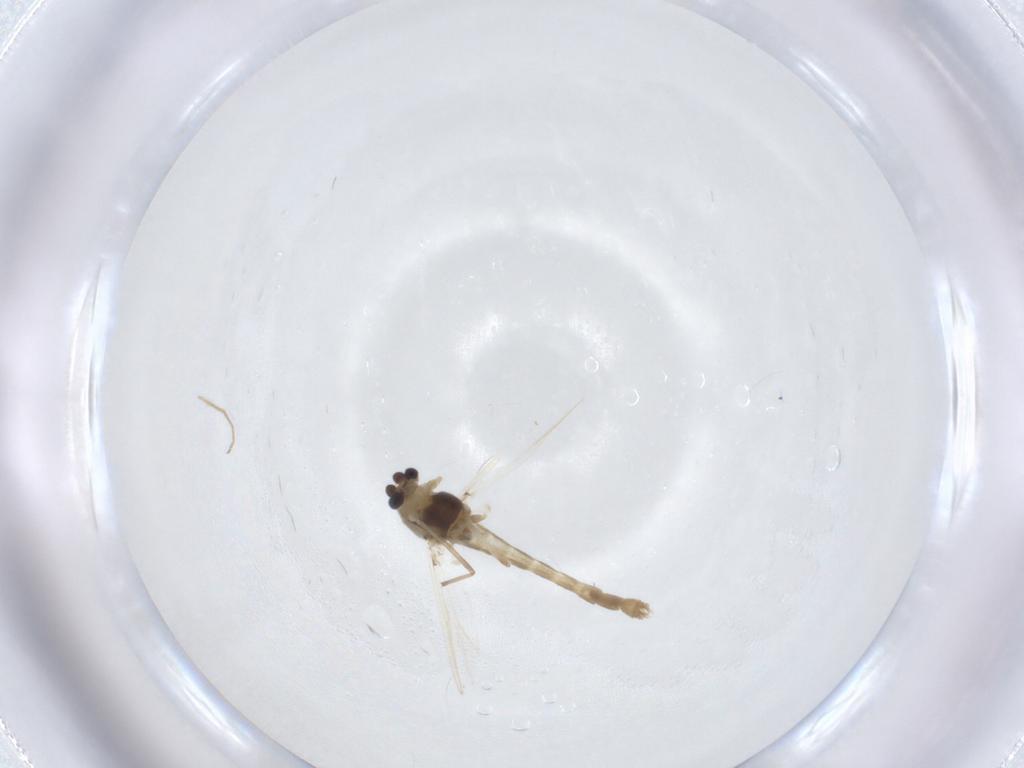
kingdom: Animalia
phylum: Arthropoda
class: Insecta
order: Diptera
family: Chironomidae
